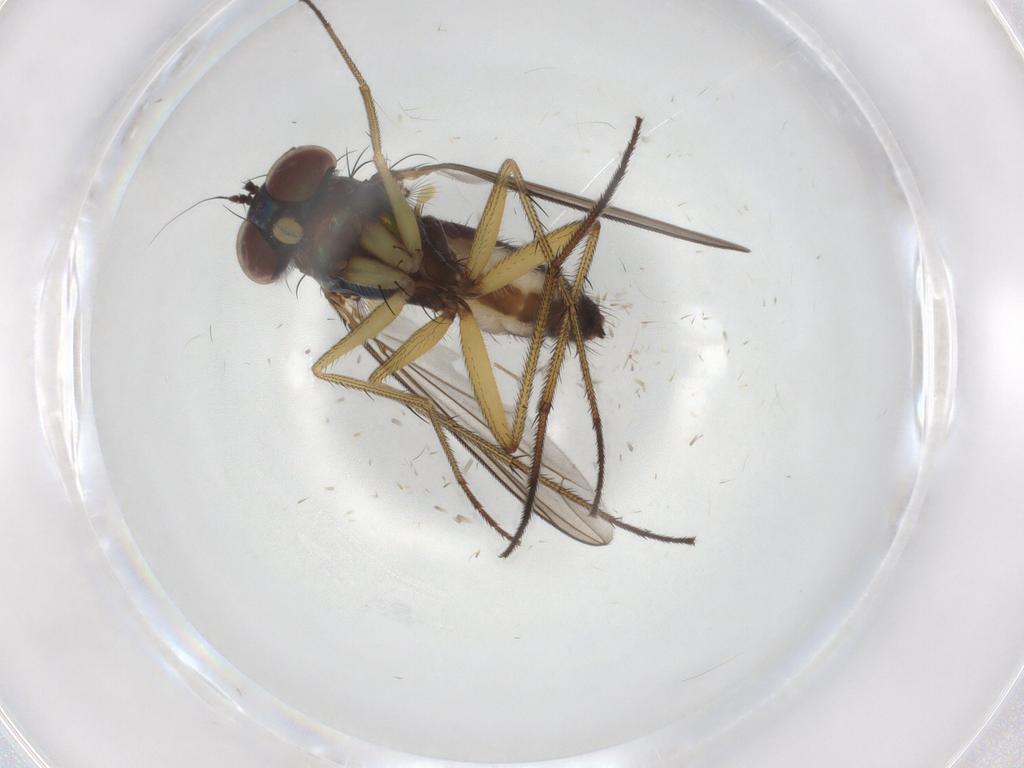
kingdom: Animalia
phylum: Arthropoda
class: Insecta
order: Diptera
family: Dolichopodidae
